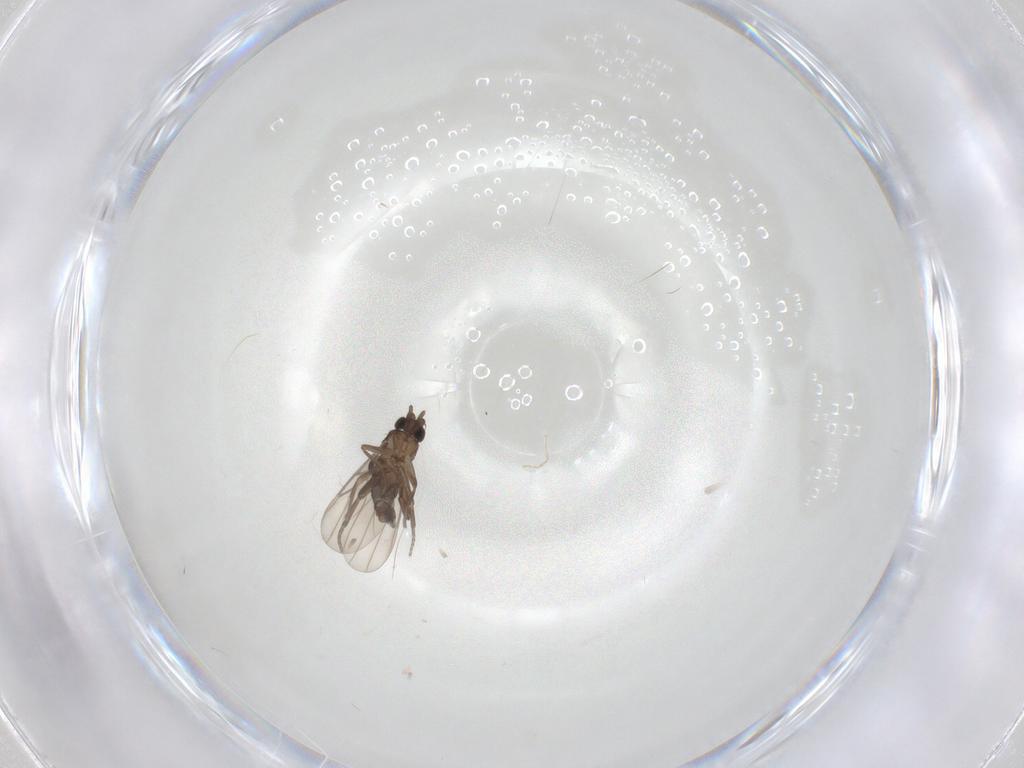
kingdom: Animalia
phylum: Arthropoda
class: Insecta
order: Diptera
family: Phoridae
